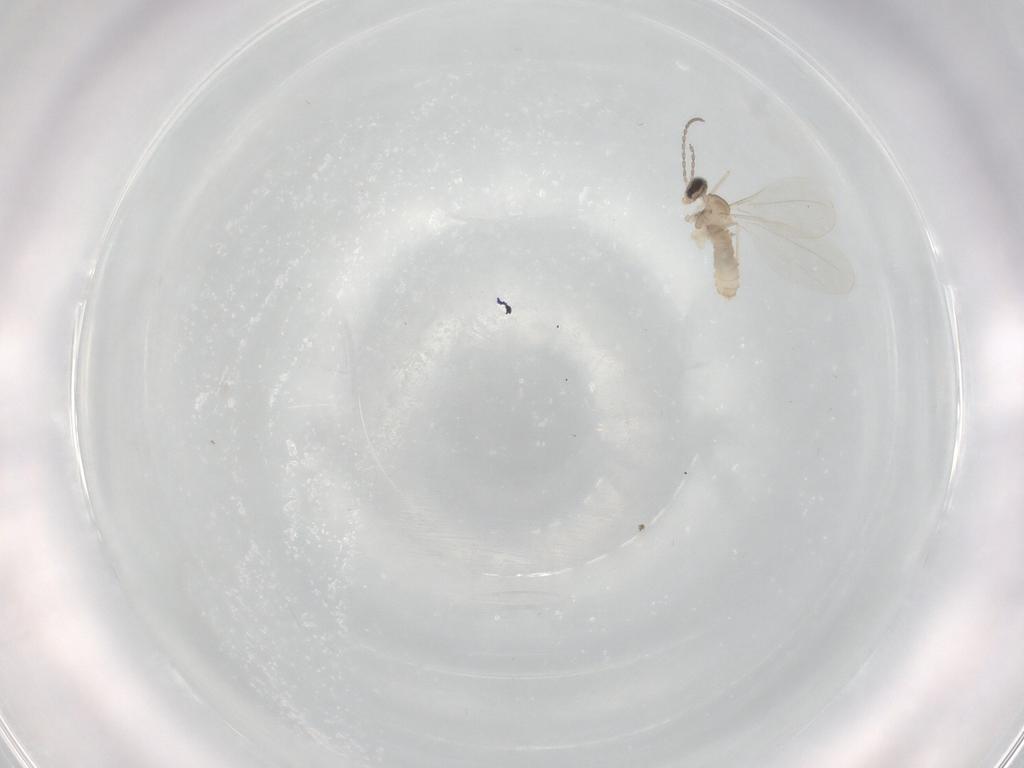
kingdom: Animalia
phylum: Arthropoda
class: Insecta
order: Diptera
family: Cecidomyiidae
